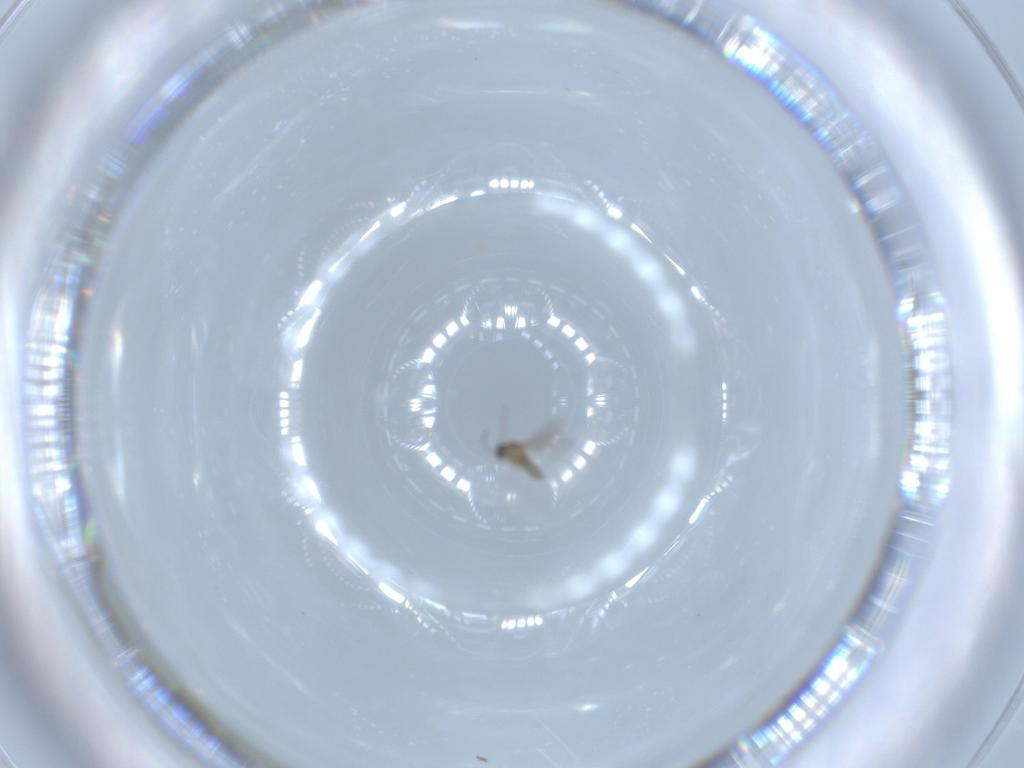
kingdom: Animalia
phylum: Arthropoda
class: Insecta
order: Diptera
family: Cecidomyiidae
